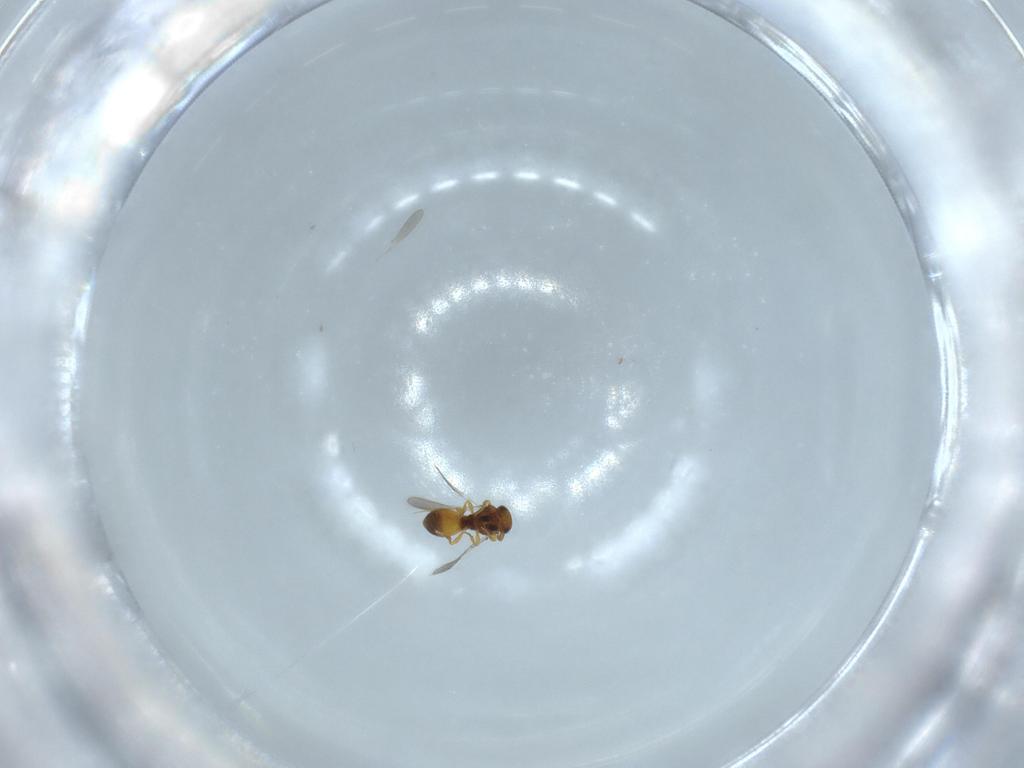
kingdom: Animalia
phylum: Arthropoda
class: Insecta
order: Hymenoptera
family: Platygastridae
